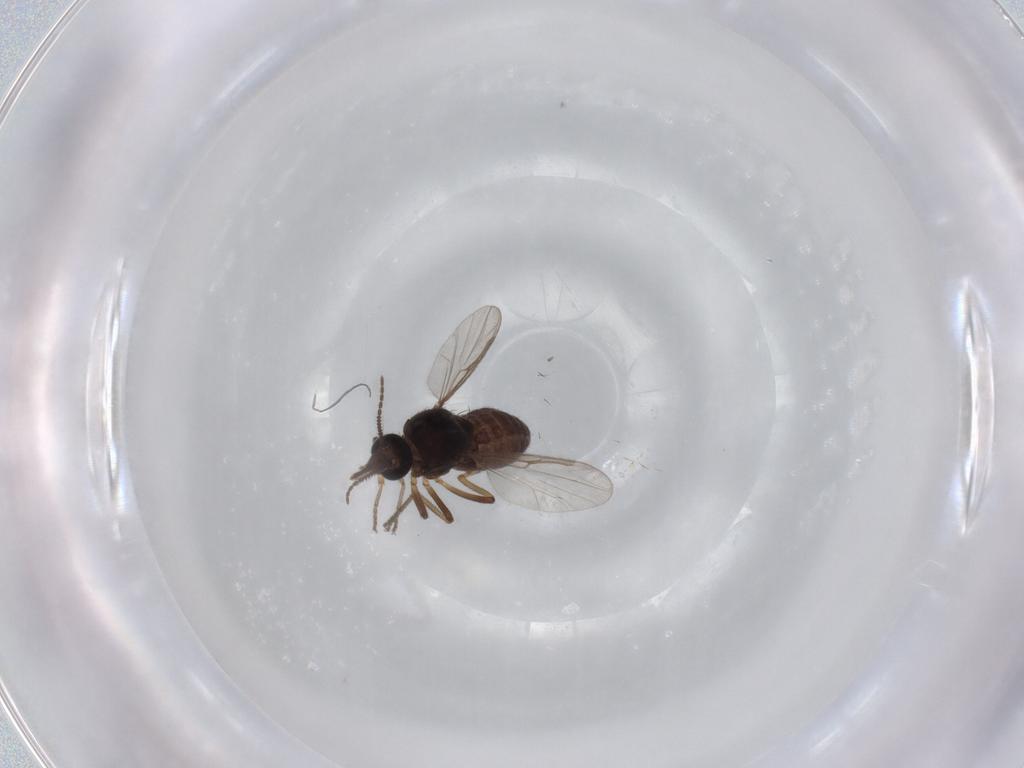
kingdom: Animalia
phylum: Arthropoda
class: Insecta
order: Diptera
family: Ceratopogonidae
